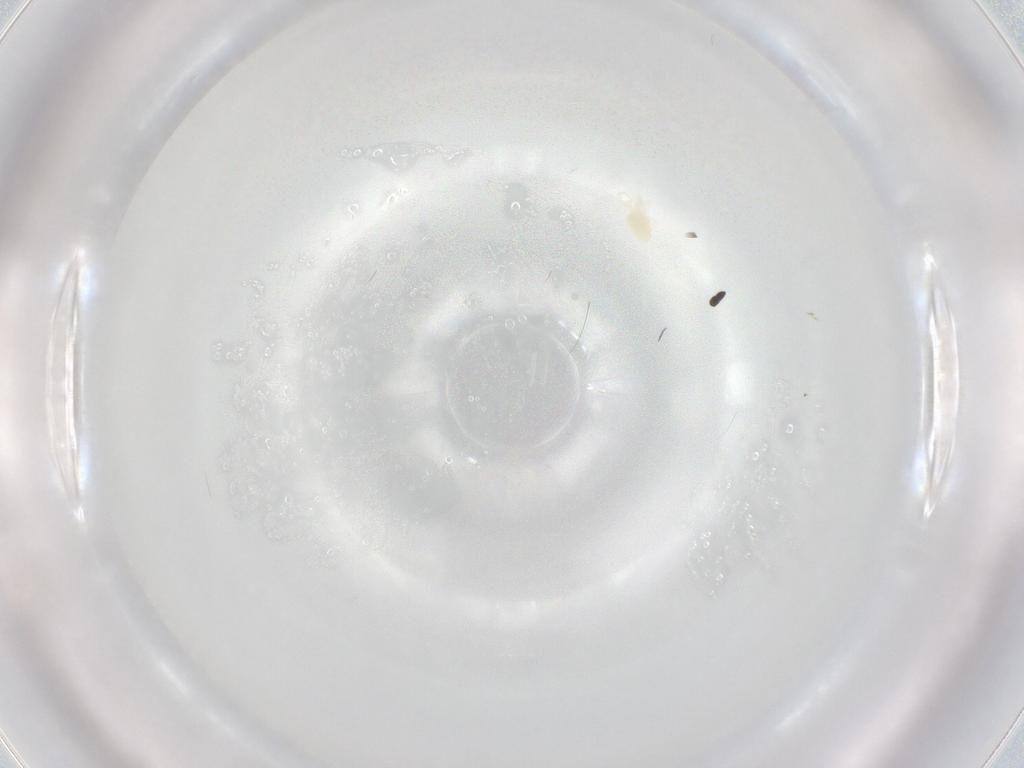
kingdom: Animalia
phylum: Arthropoda
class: Arachnida
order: Trombidiformes
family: Eupodidae
